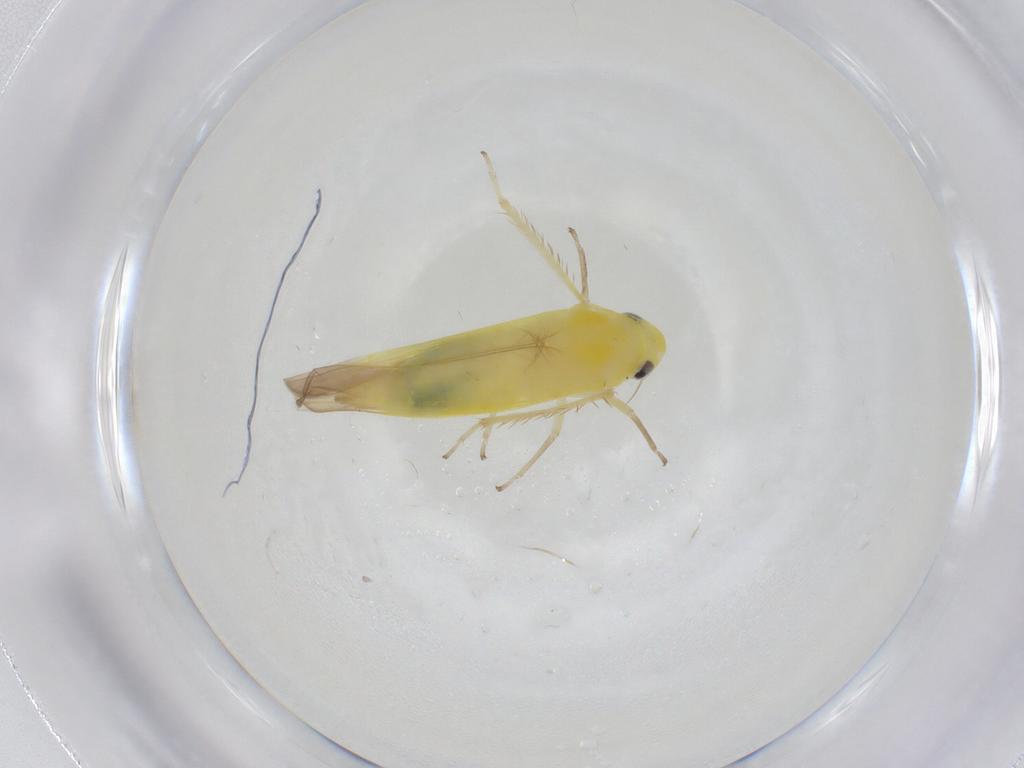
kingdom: Animalia
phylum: Arthropoda
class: Insecta
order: Hemiptera
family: Cicadellidae
